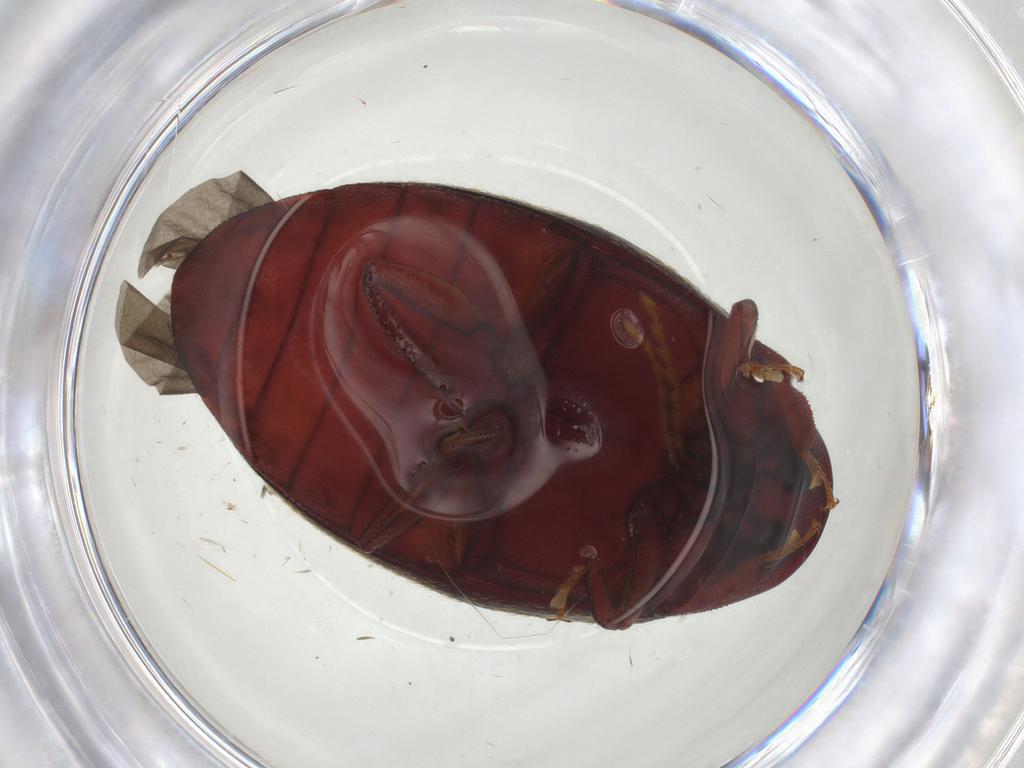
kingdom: Animalia
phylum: Arthropoda
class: Insecta
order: Coleoptera
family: Chelonariidae
